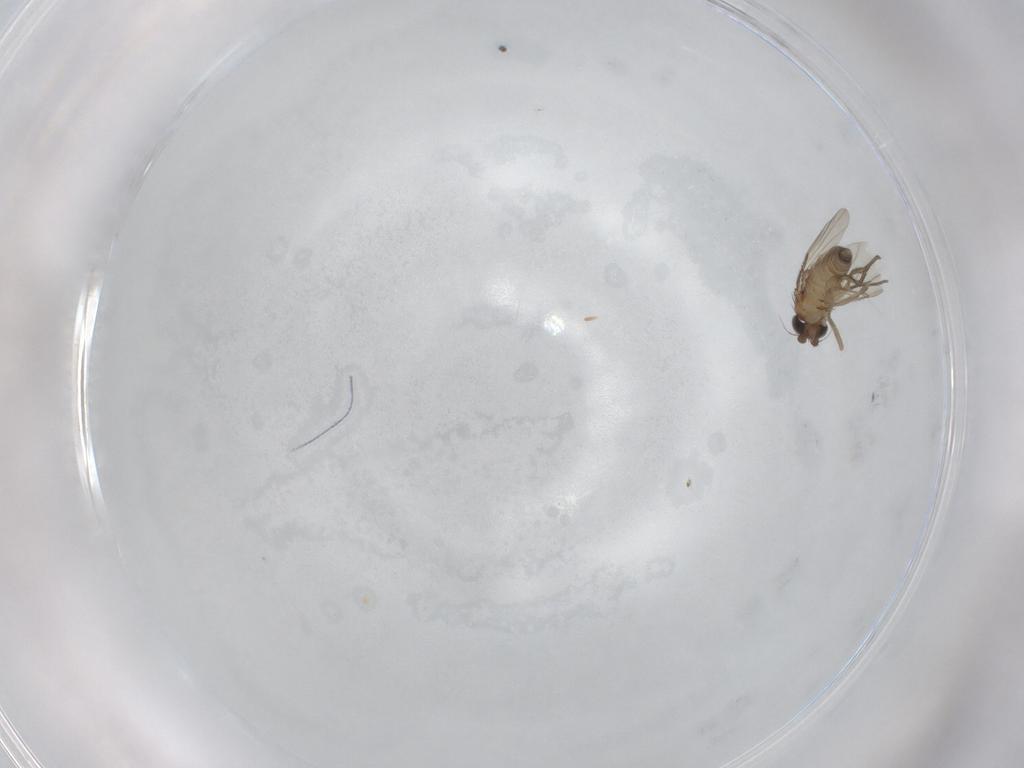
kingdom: Animalia
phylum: Arthropoda
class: Insecta
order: Diptera
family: Phoridae
